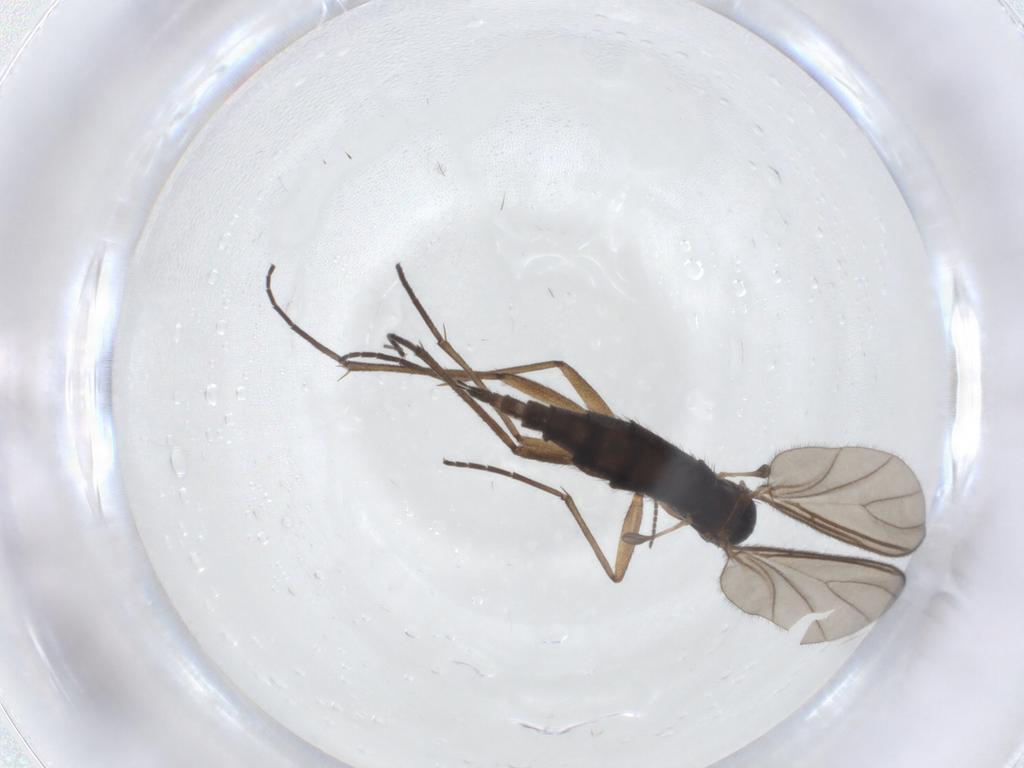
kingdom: Animalia
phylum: Arthropoda
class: Insecta
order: Diptera
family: Sciaridae
